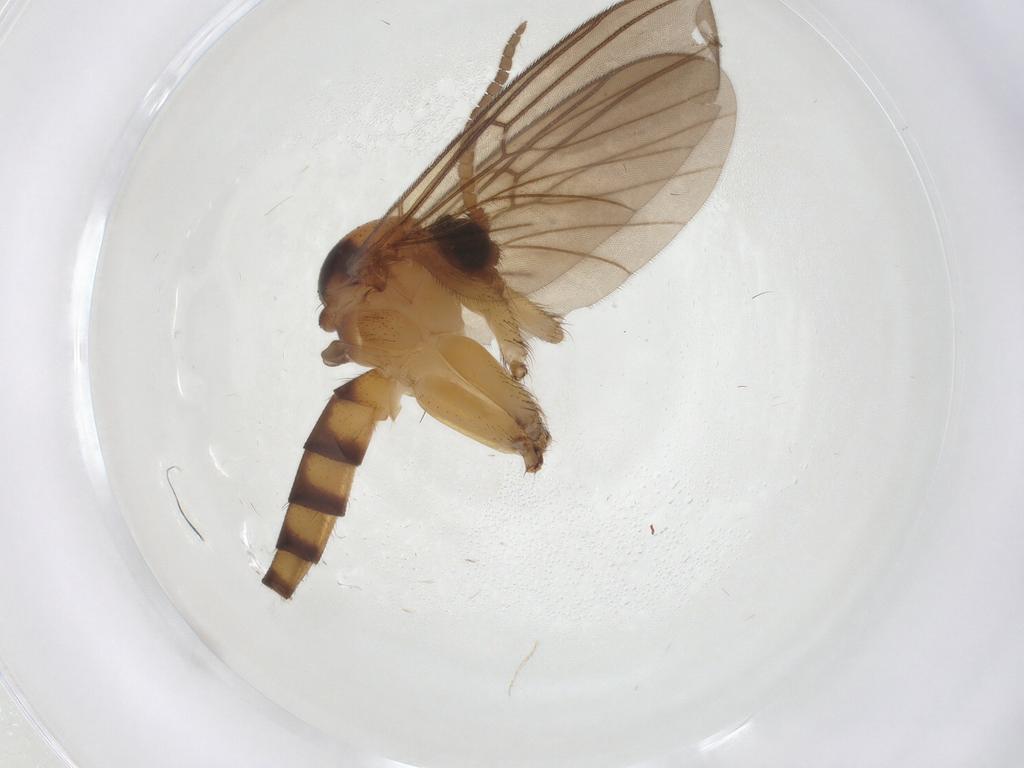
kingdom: Animalia
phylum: Arthropoda
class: Insecta
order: Diptera
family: Mycetophilidae
